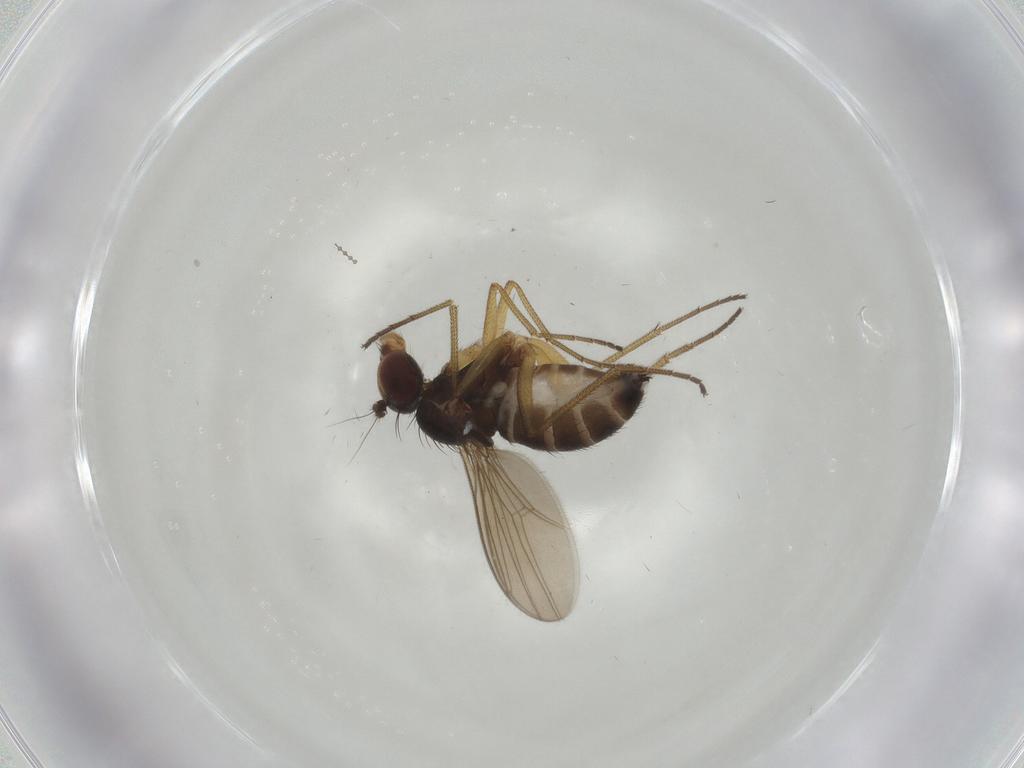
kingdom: Animalia
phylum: Arthropoda
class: Insecta
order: Diptera
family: Dolichopodidae
